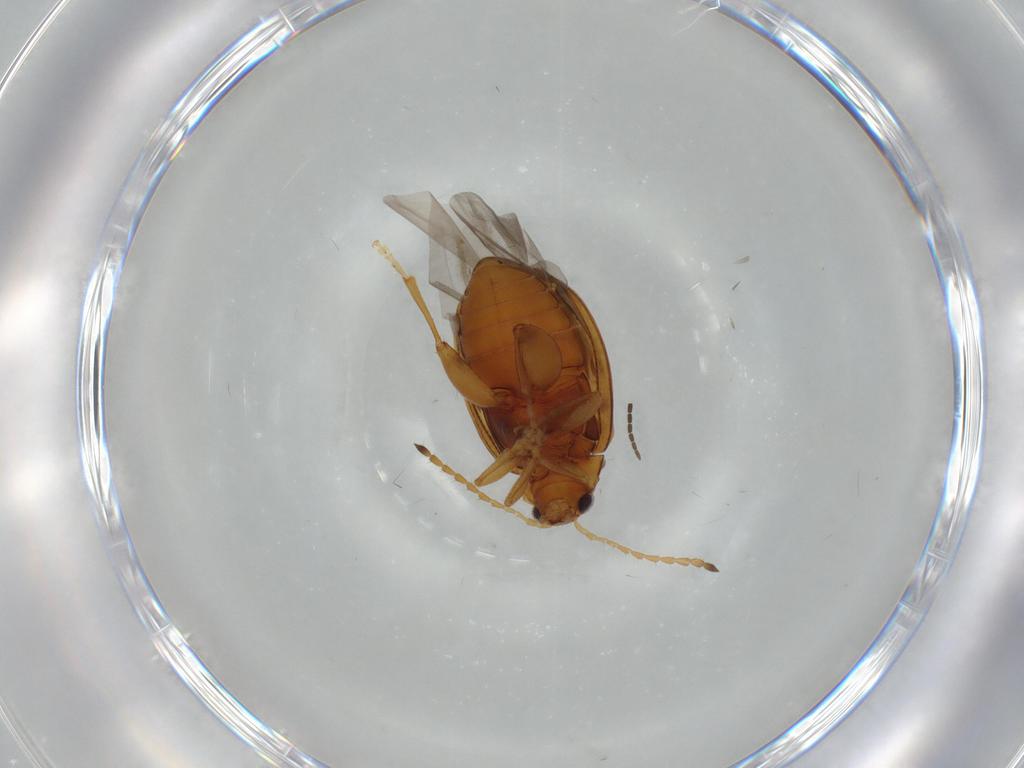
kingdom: Animalia
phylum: Arthropoda
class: Insecta
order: Coleoptera
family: Chrysomelidae
